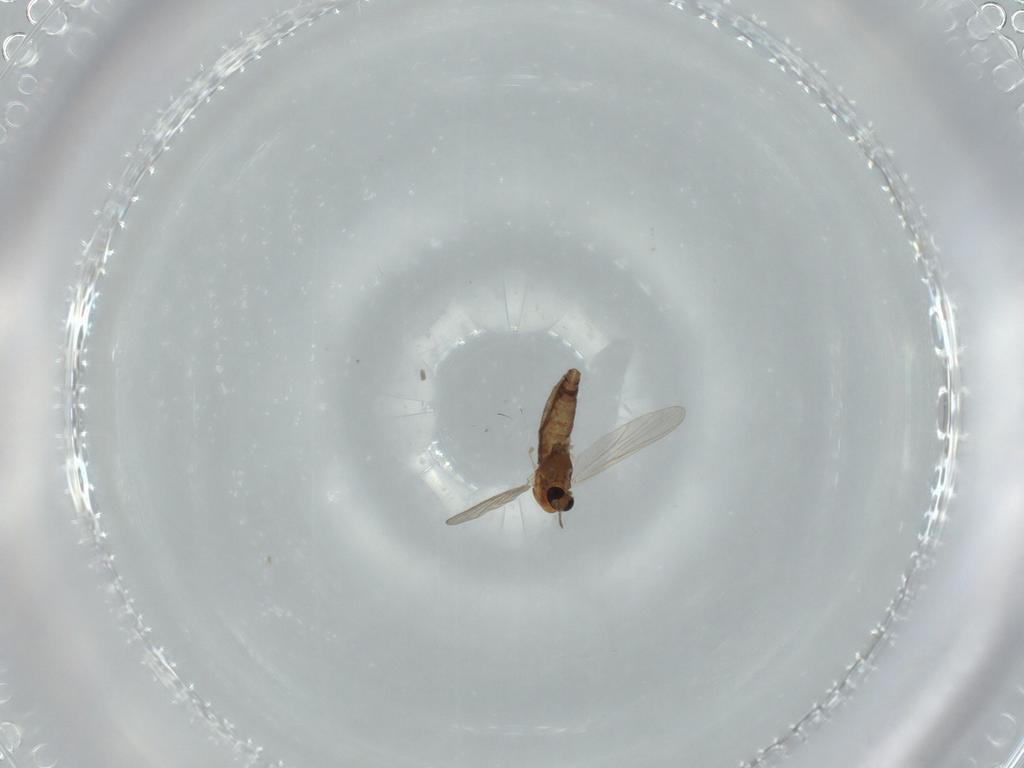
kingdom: Animalia
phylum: Arthropoda
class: Insecta
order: Diptera
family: Chironomidae
